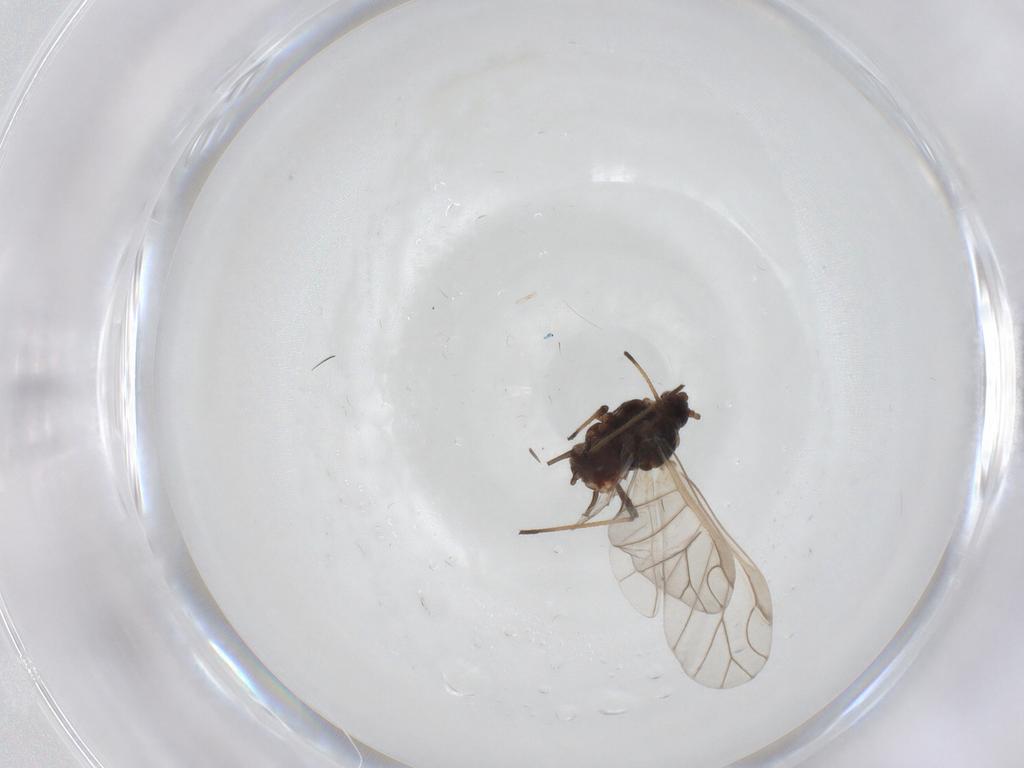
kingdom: Animalia
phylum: Arthropoda
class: Insecta
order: Hemiptera
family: Aphididae
